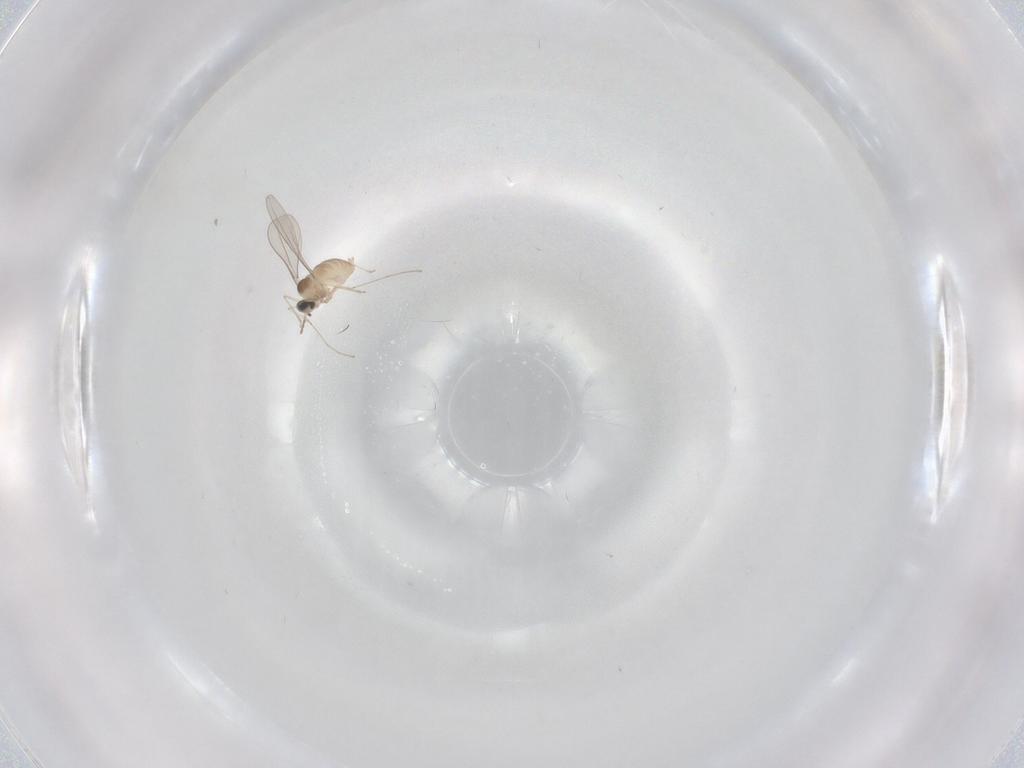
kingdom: Animalia
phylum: Arthropoda
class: Insecta
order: Diptera
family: Cecidomyiidae
